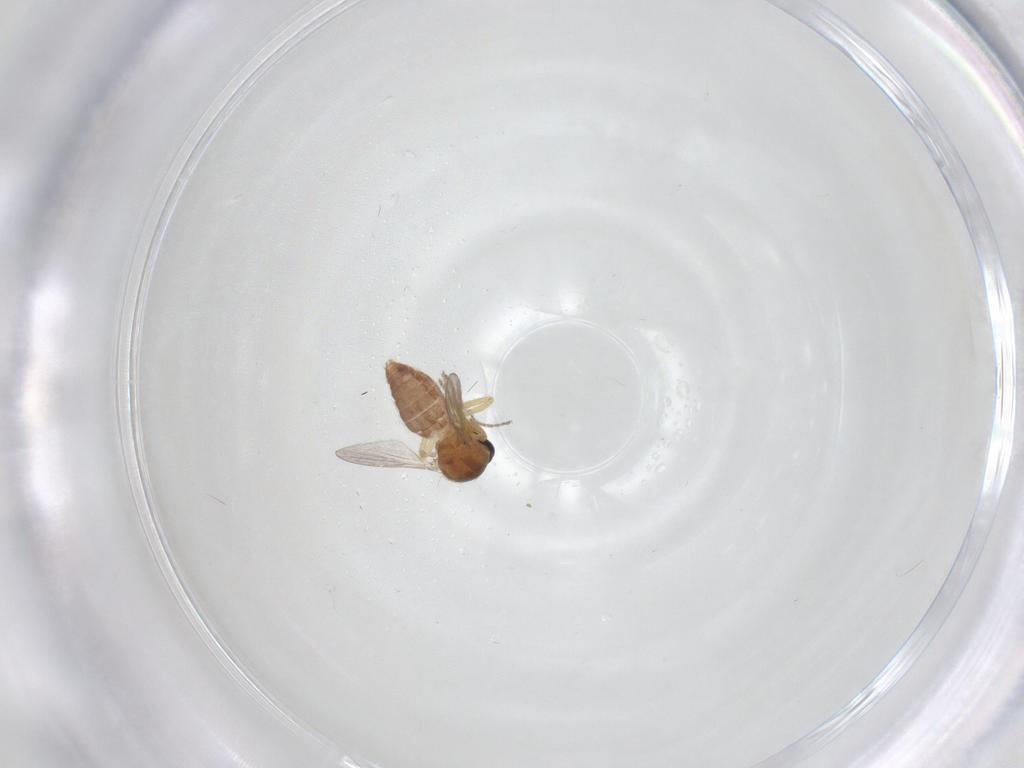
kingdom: Animalia
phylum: Arthropoda
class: Insecta
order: Diptera
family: Ceratopogonidae
